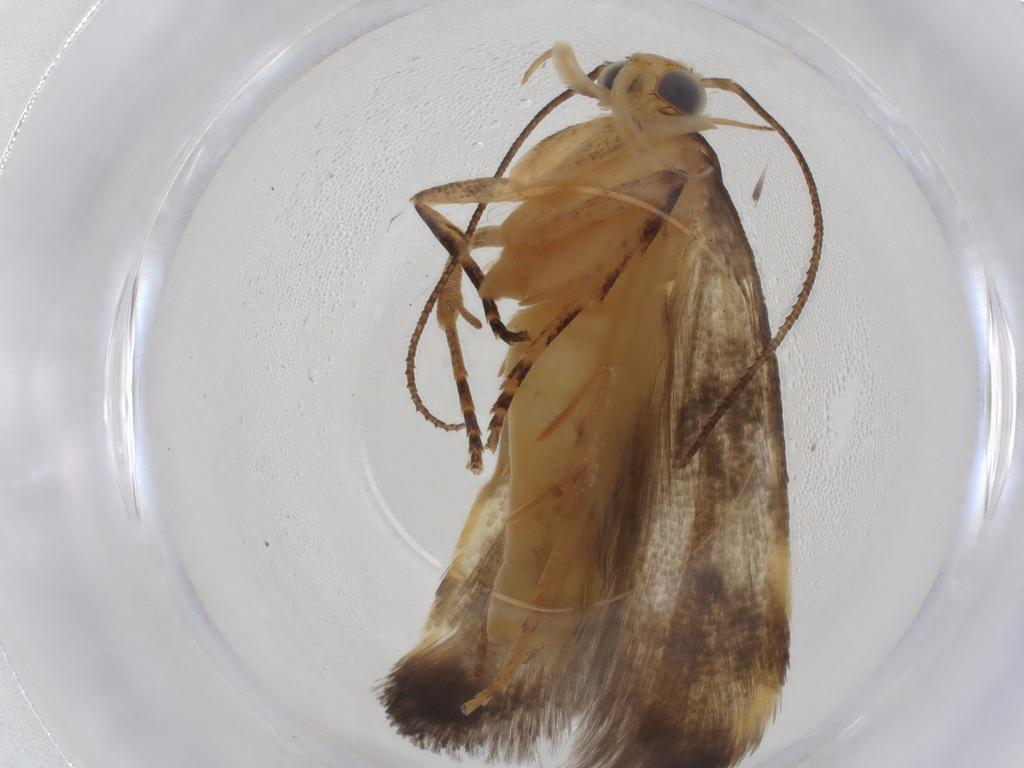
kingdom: Animalia
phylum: Arthropoda
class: Insecta
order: Lepidoptera
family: Gelechiidae
